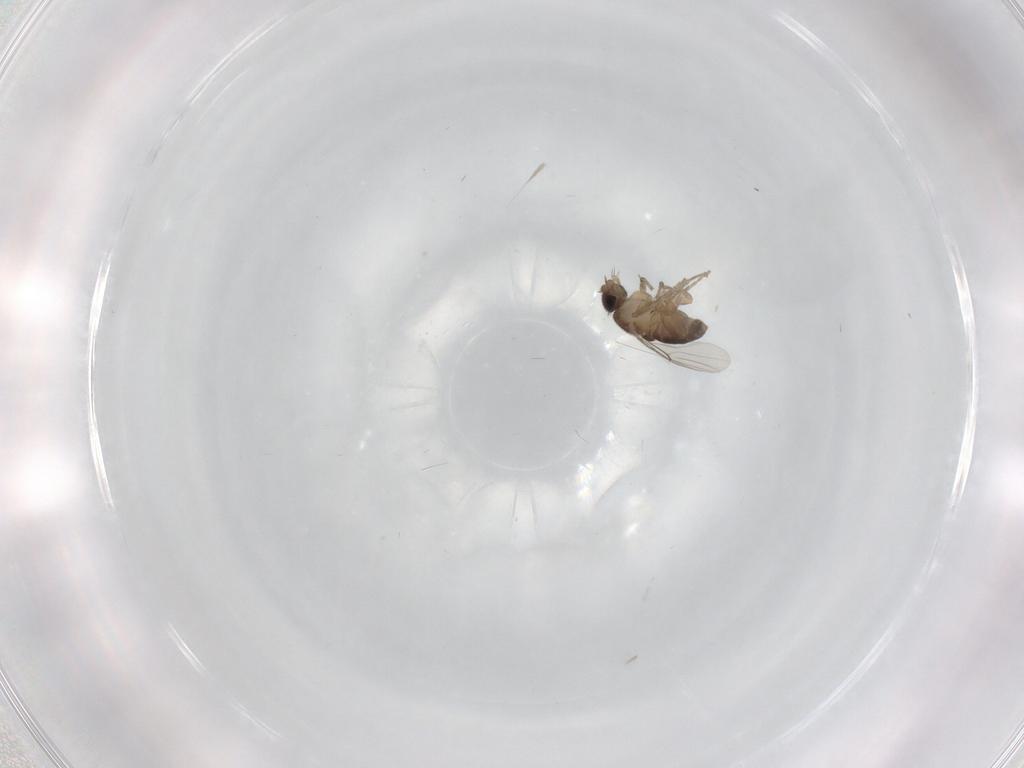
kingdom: Animalia
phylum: Arthropoda
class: Insecta
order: Diptera
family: Phoridae
